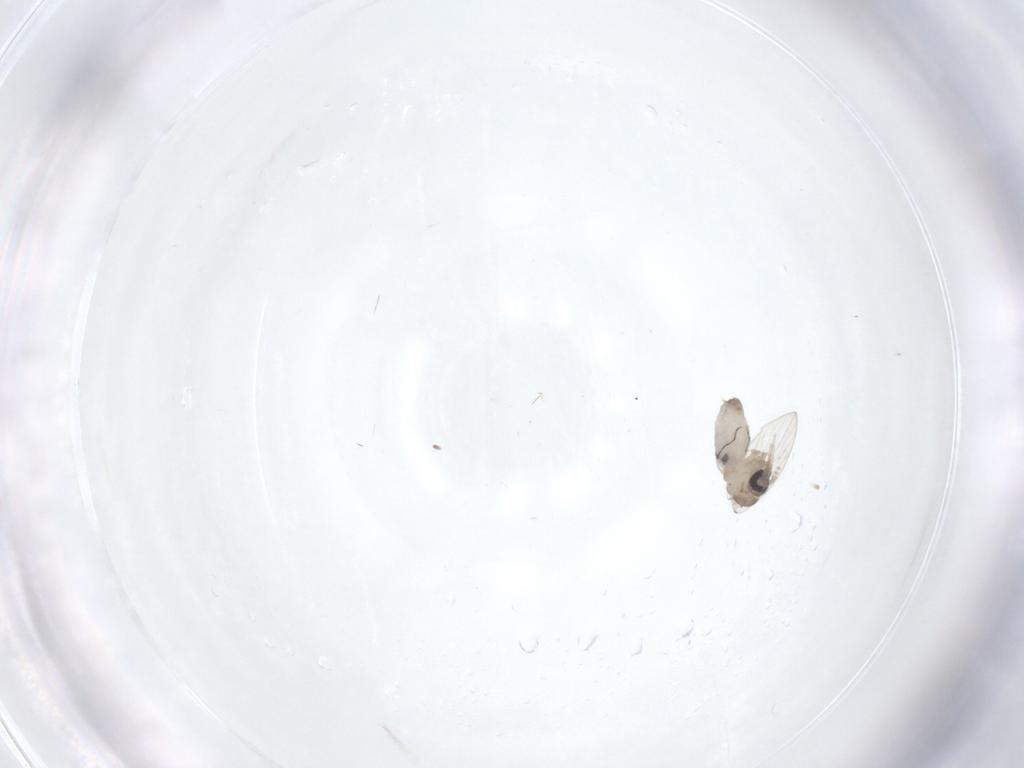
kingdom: Animalia
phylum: Arthropoda
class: Insecta
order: Diptera
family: Psychodidae
